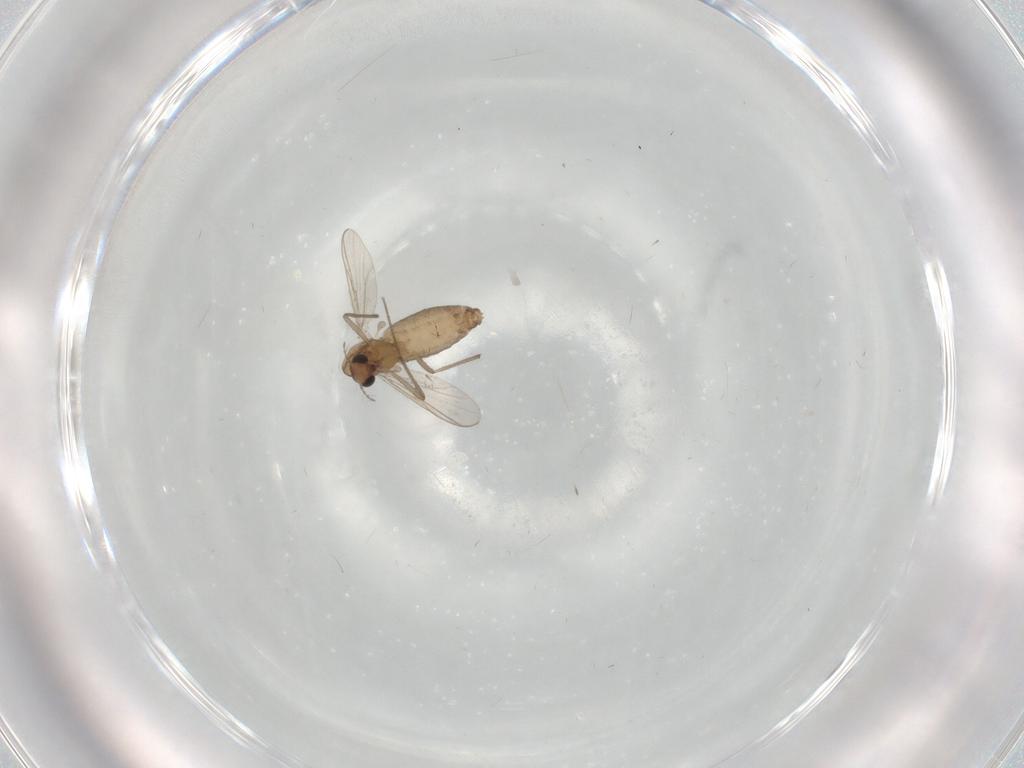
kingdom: Animalia
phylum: Arthropoda
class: Insecta
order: Diptera
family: Chironomidae
